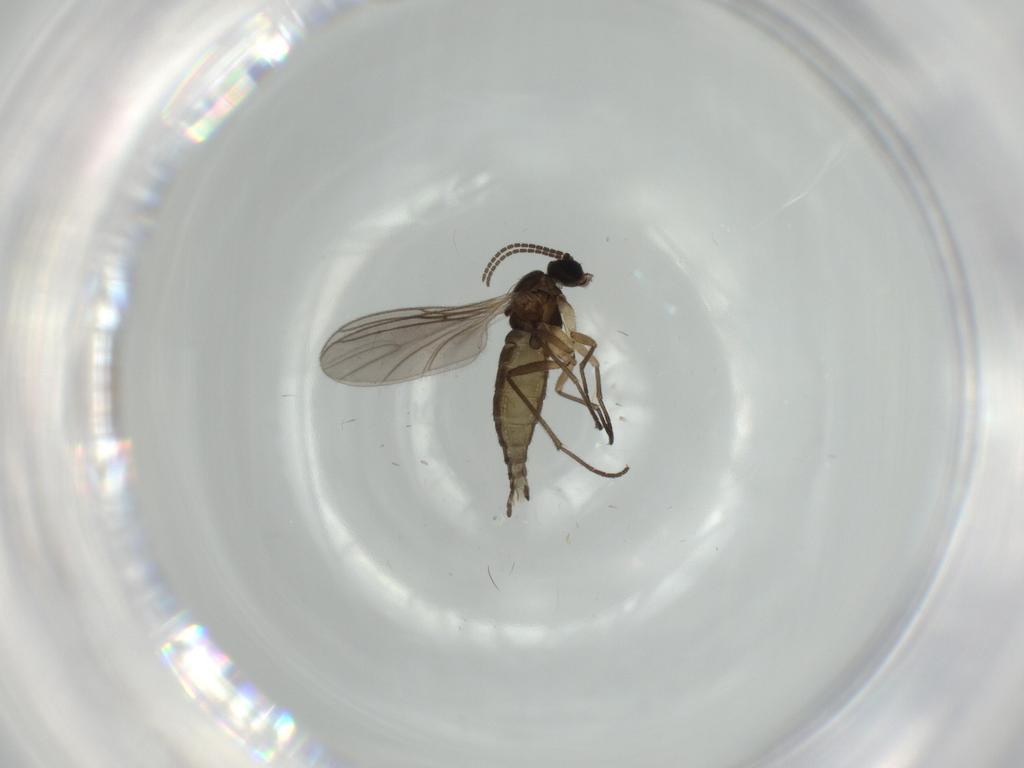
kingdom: Animalia
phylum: Arthropoda
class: Insecta
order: Diptera
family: Sciaridae
